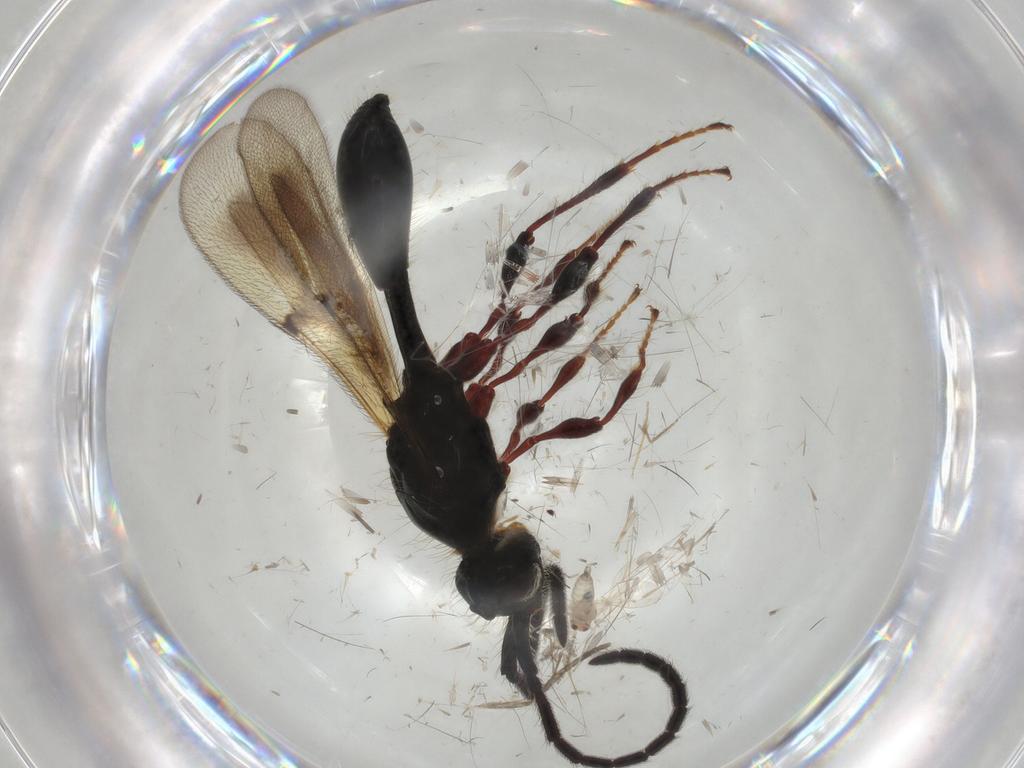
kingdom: Animalia
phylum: Arthropoda
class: Insecta
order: Hymenoptera
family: Diapriidae
